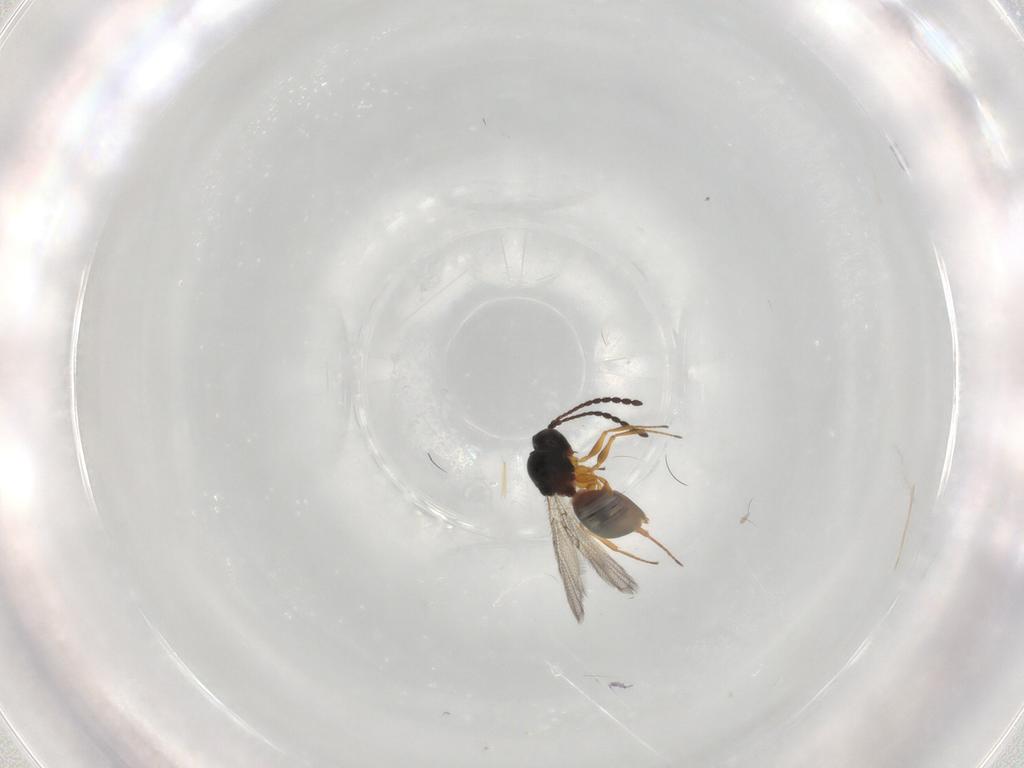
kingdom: Animalia
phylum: Arthropoda
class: Insecta
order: Hymenoptera
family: Figitidae
